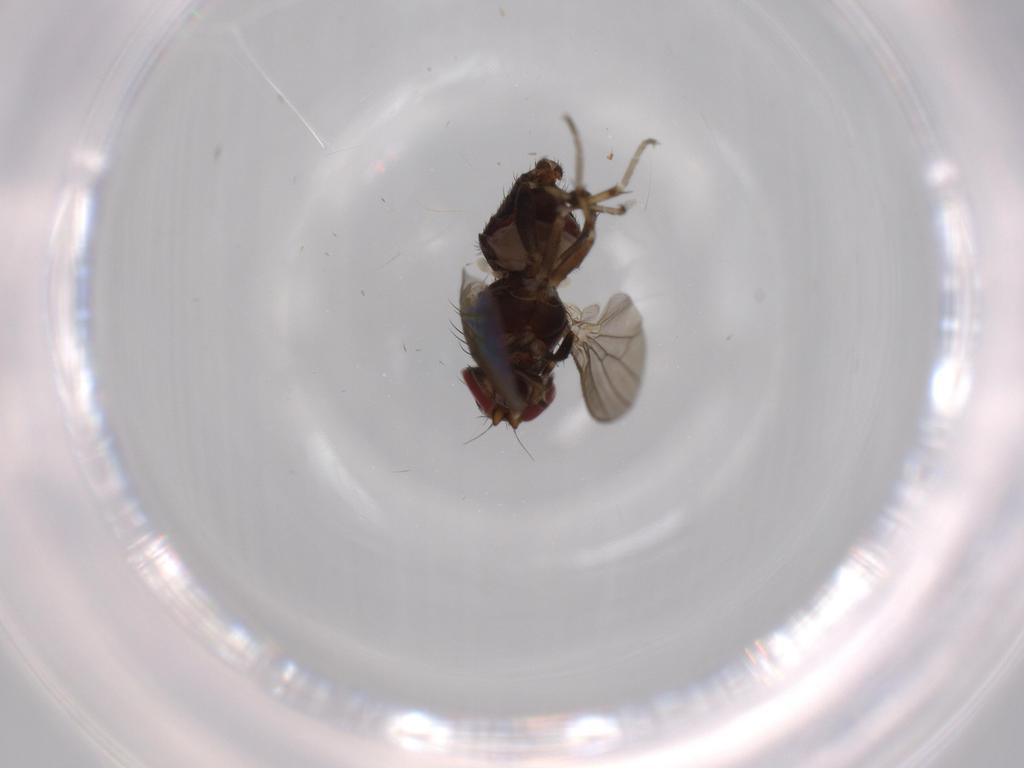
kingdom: Animalia
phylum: Arthropoda
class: Insecta
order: Diptera
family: Heleomyzidae
